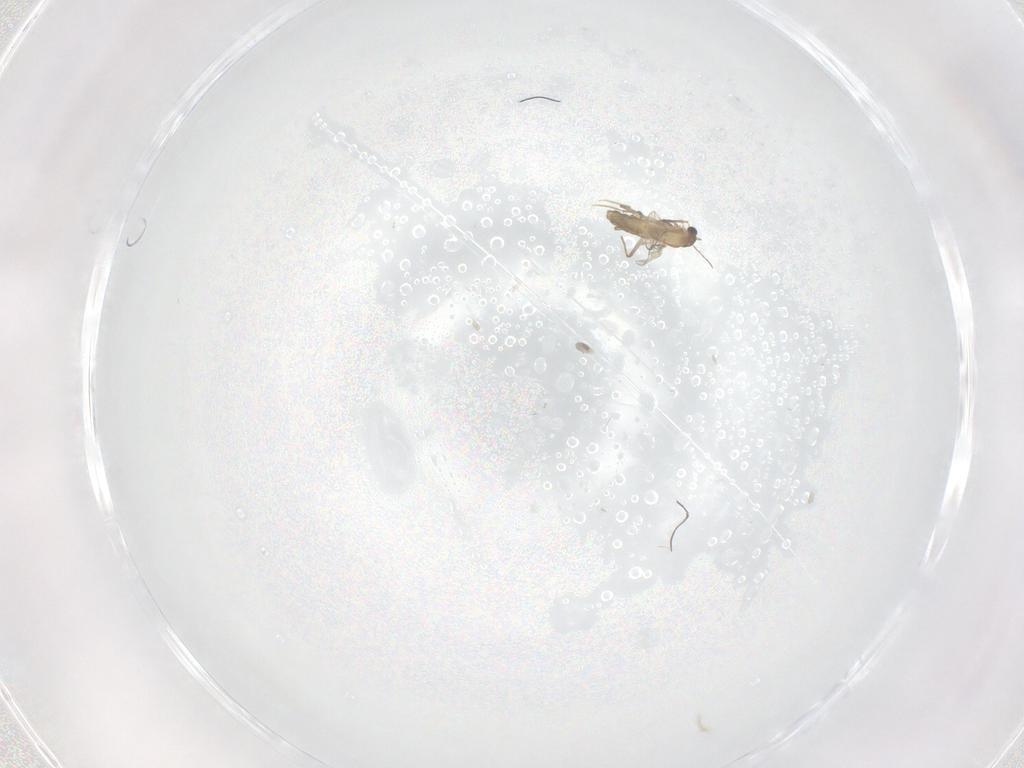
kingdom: Animalia
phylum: Arthropoda
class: Insecta
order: Diptera
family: Chironomidae
